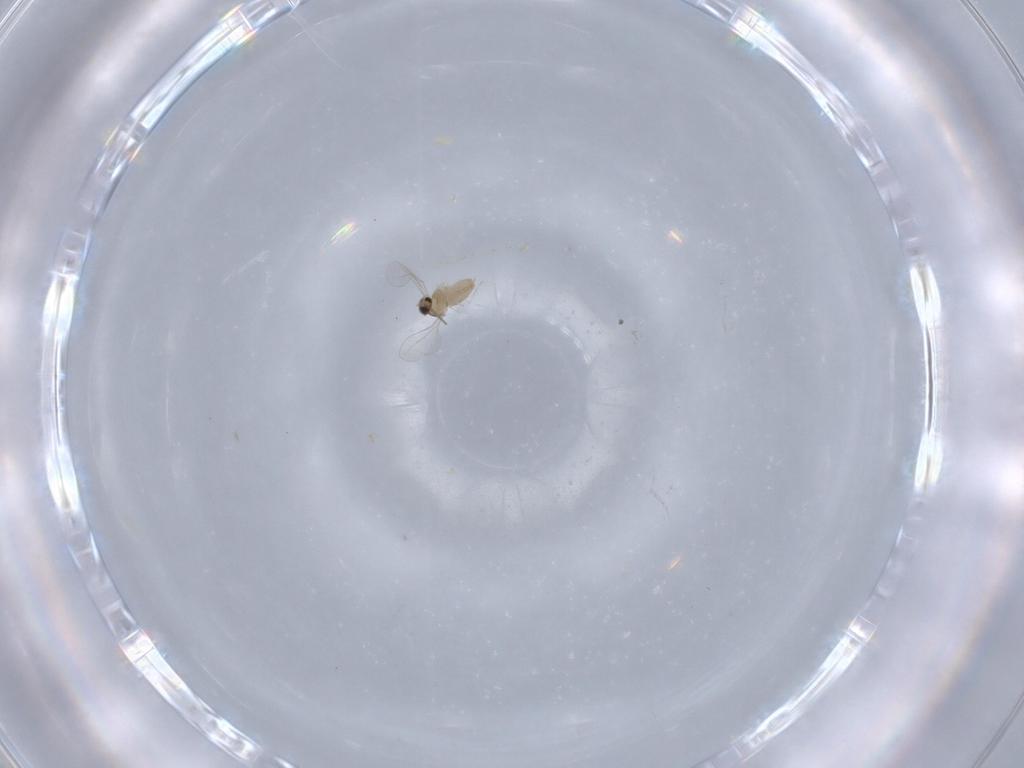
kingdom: Animalia
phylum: Arthropoda
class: Insecta
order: Diptera
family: Cecidomyiidae
